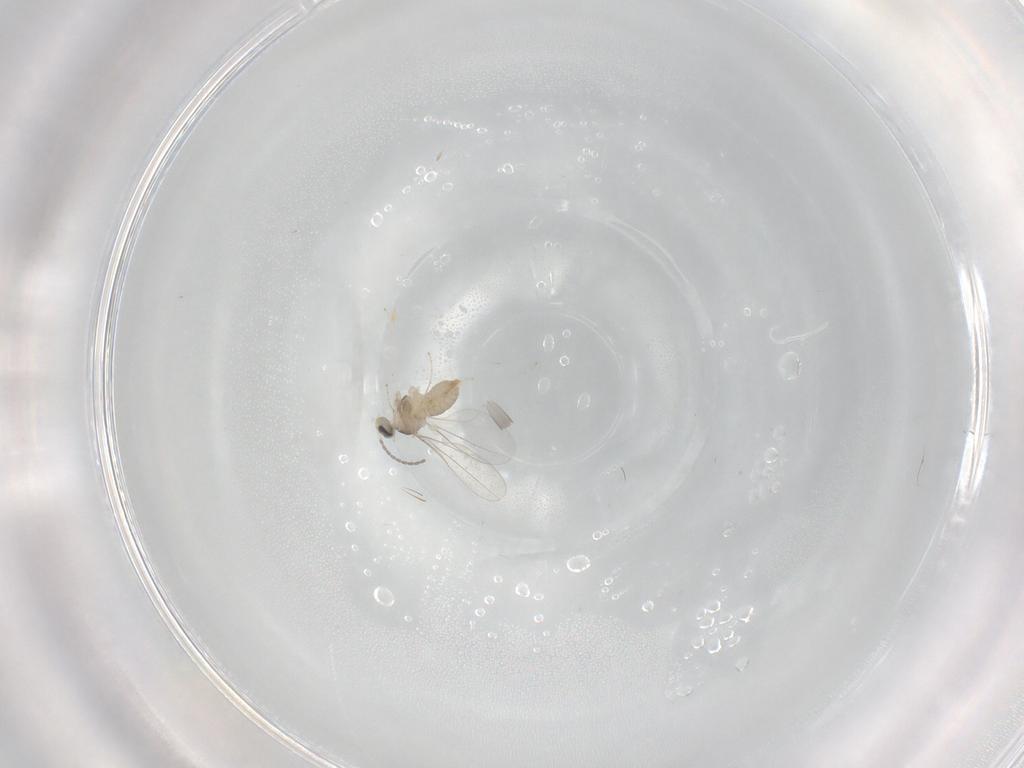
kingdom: Animalia
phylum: Arthropoda
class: Insecta
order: Diptera
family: Cecidomyiidae
